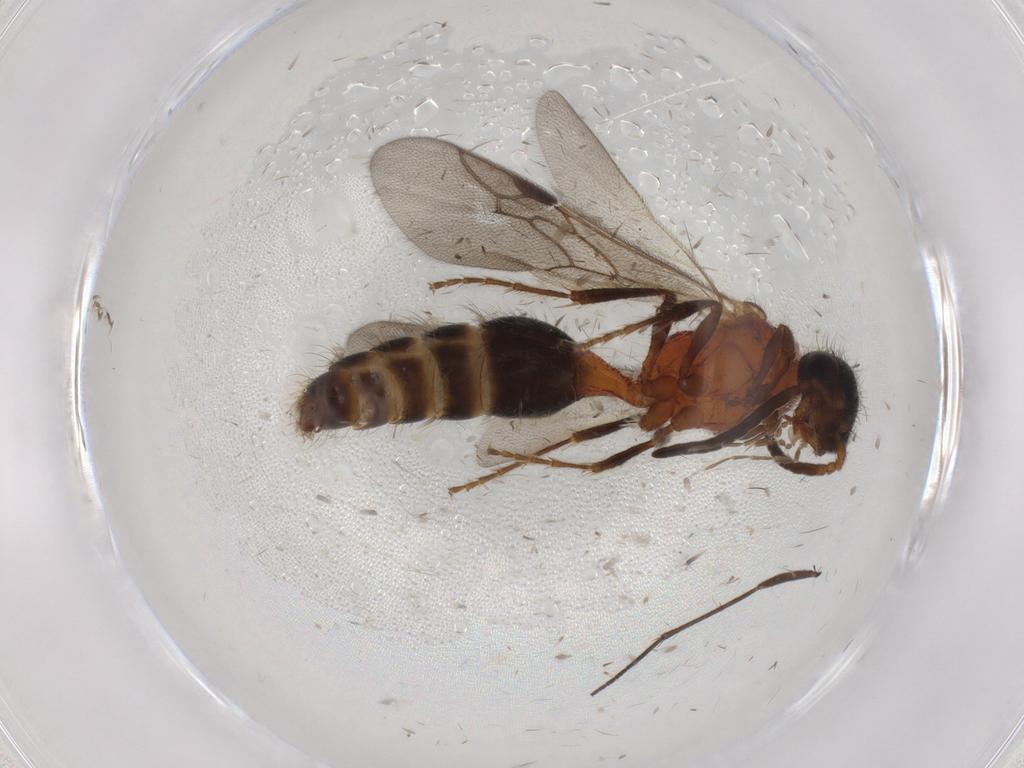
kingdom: Animalia
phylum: Arthropoda
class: Insecta
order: Hymenoptera
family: Mutillidae
